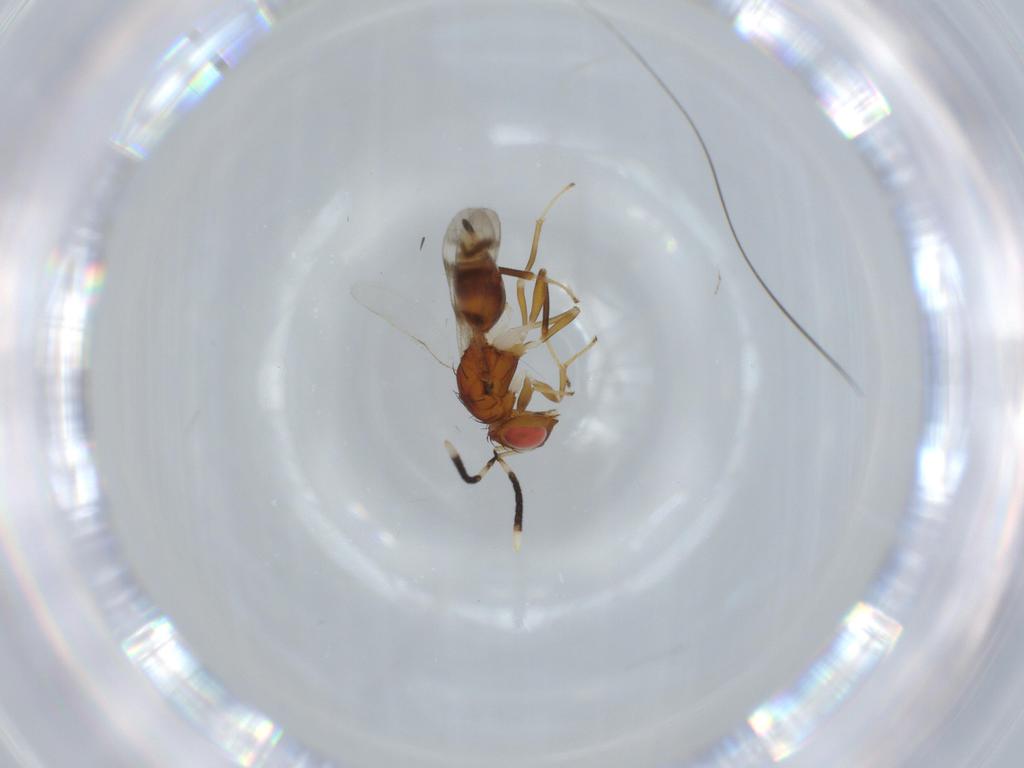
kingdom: Animalia
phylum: Arthropoda
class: Insecta
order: Hymenoptera
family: Diparidae
